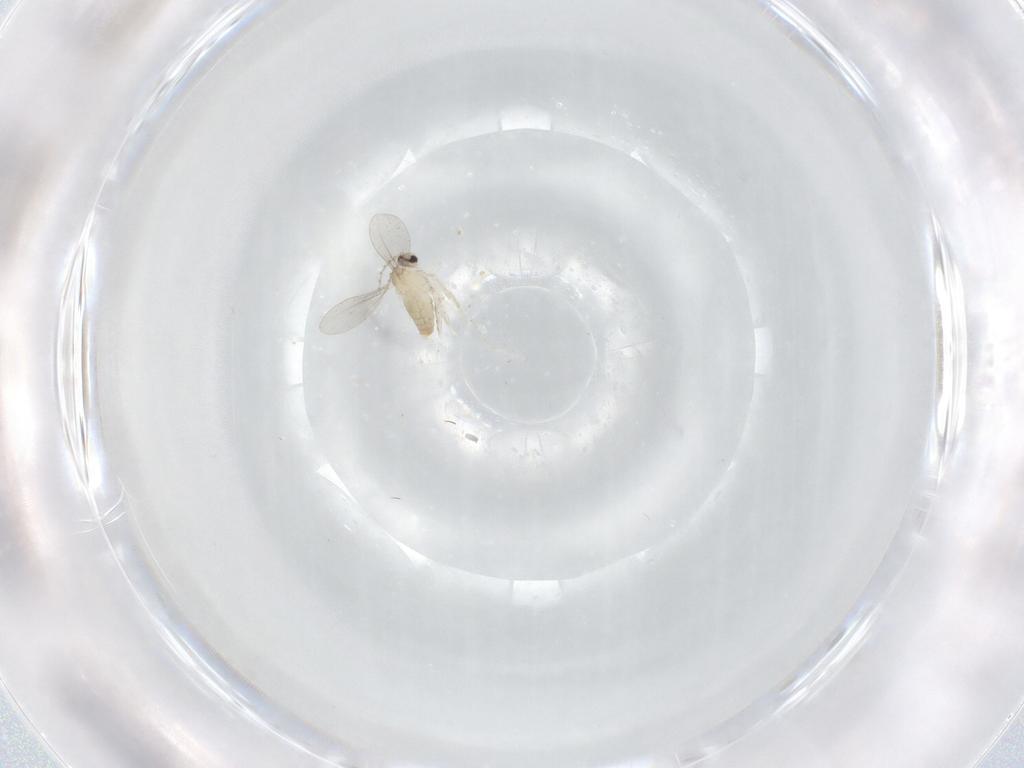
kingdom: Animalia
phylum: Arthropoda
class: Insecta
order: Diptera
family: Cecidomyiidae
